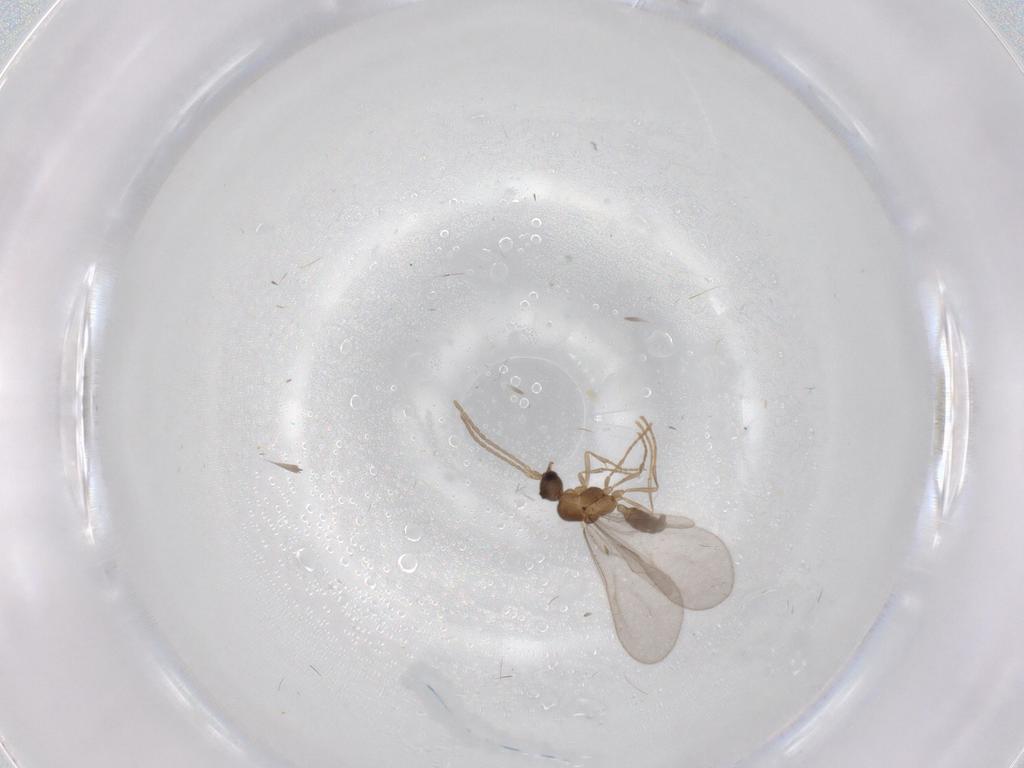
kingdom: Animalia
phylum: Arthropoda
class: Insecta
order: Hymenoptera
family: Formicidae
